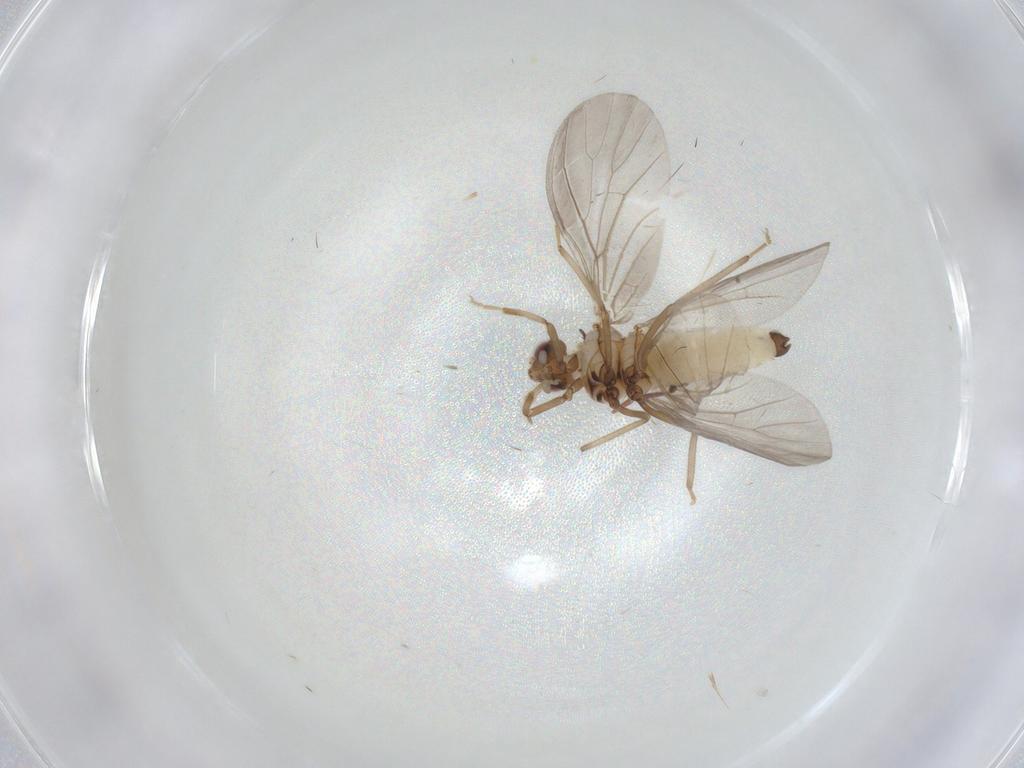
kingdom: Animalia
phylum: Arthropoda
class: Insecta
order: Neuroptera
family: Coniopterygidae
